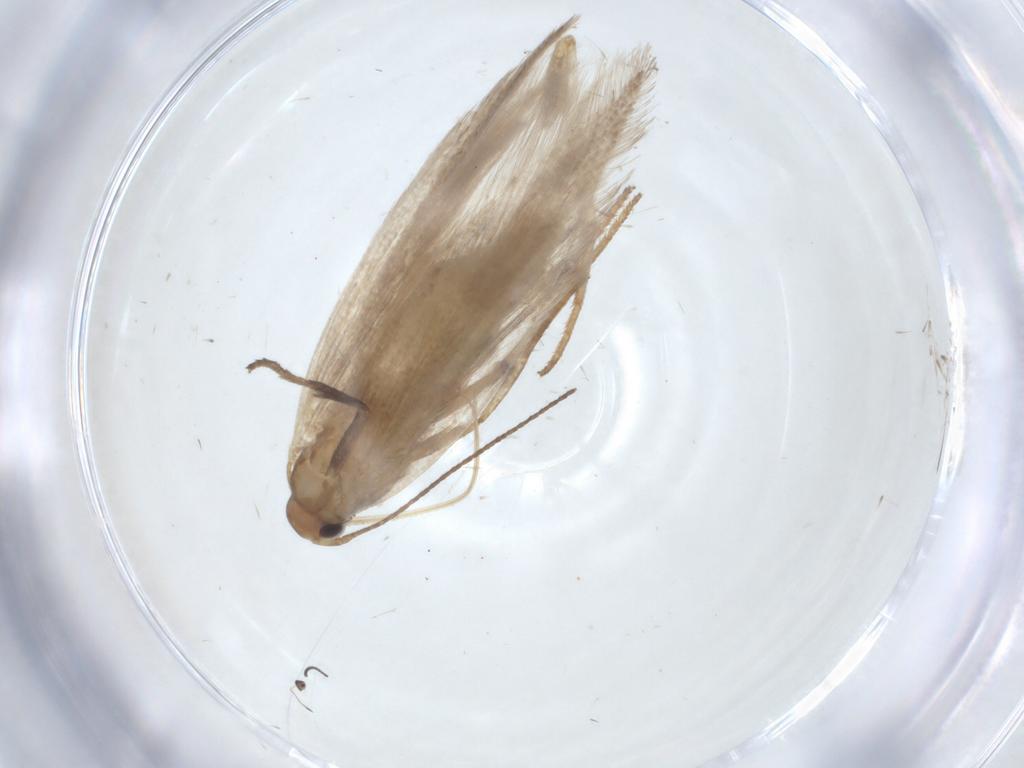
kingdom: Animalia
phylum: Arthropoda
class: Insecta
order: Lepidoptera
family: Gelechiidae
